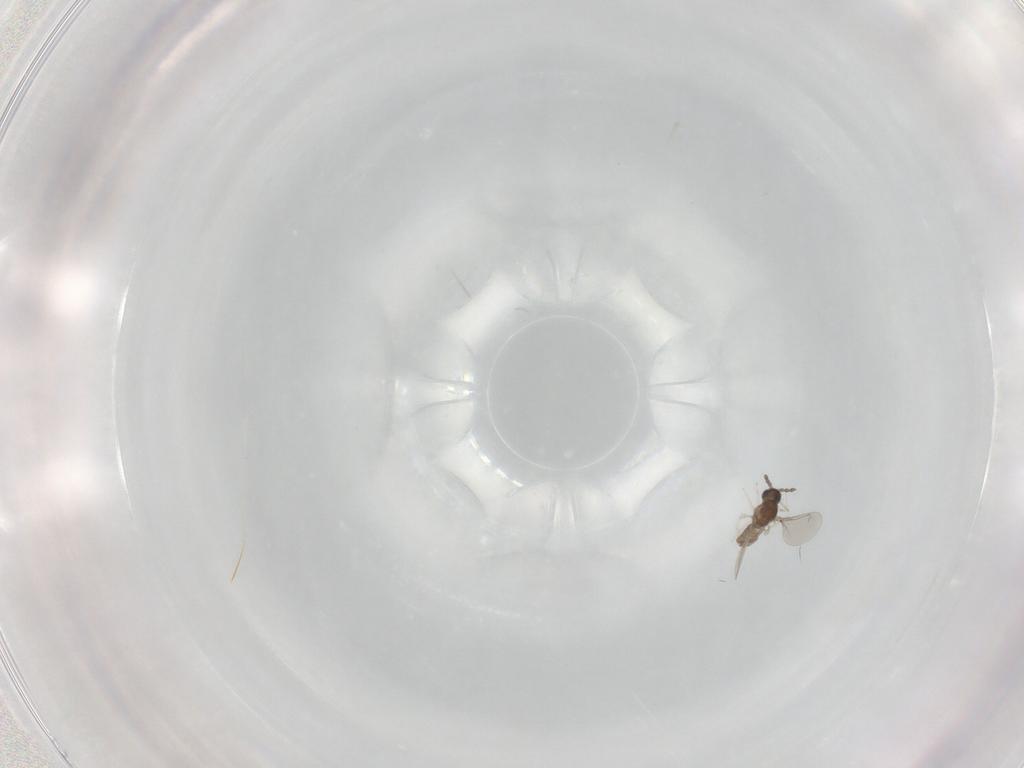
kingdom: Animalia
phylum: Arthropoda
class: Insecta
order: Diptera
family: Cecidomyiidae
